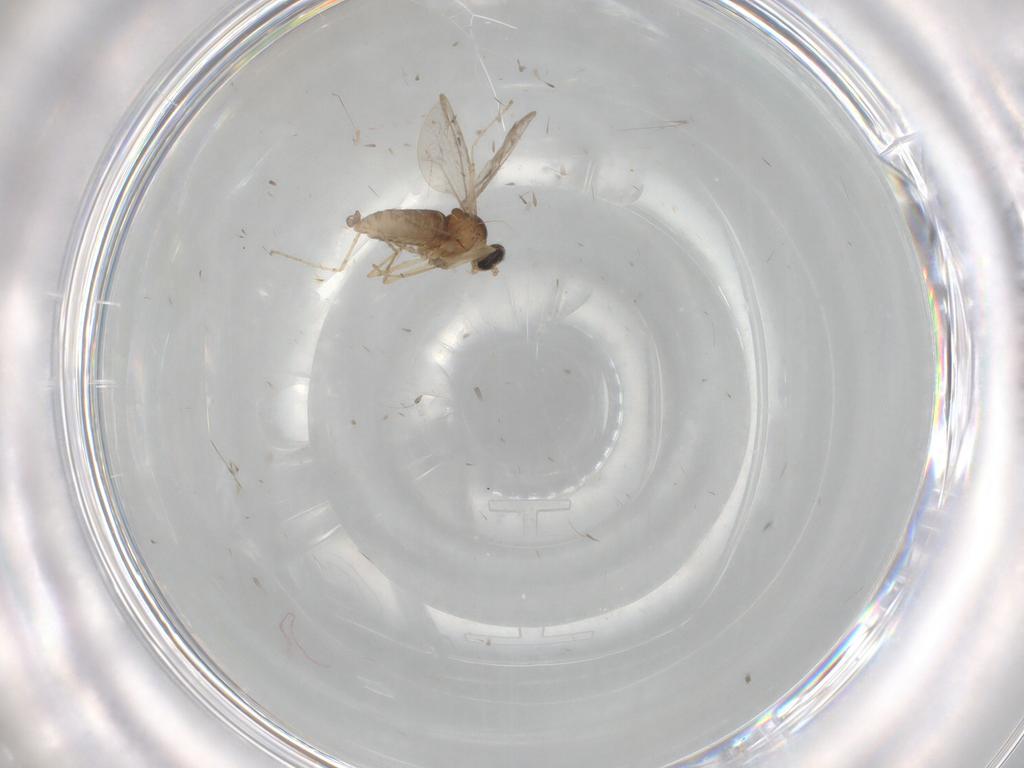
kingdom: Animalia
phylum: Arthropoda
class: Insecta
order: Diptera
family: Cecidomyiidae
